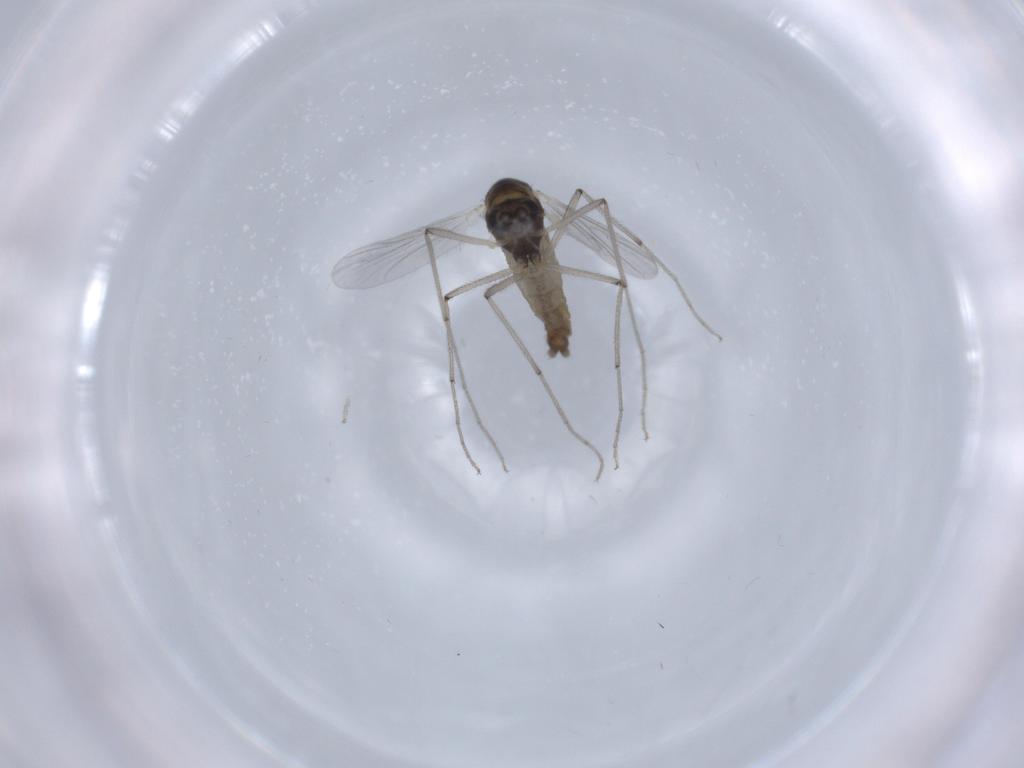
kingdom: Animalia
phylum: Arthropoda
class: Insecta
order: Diptera
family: Chironomidae
